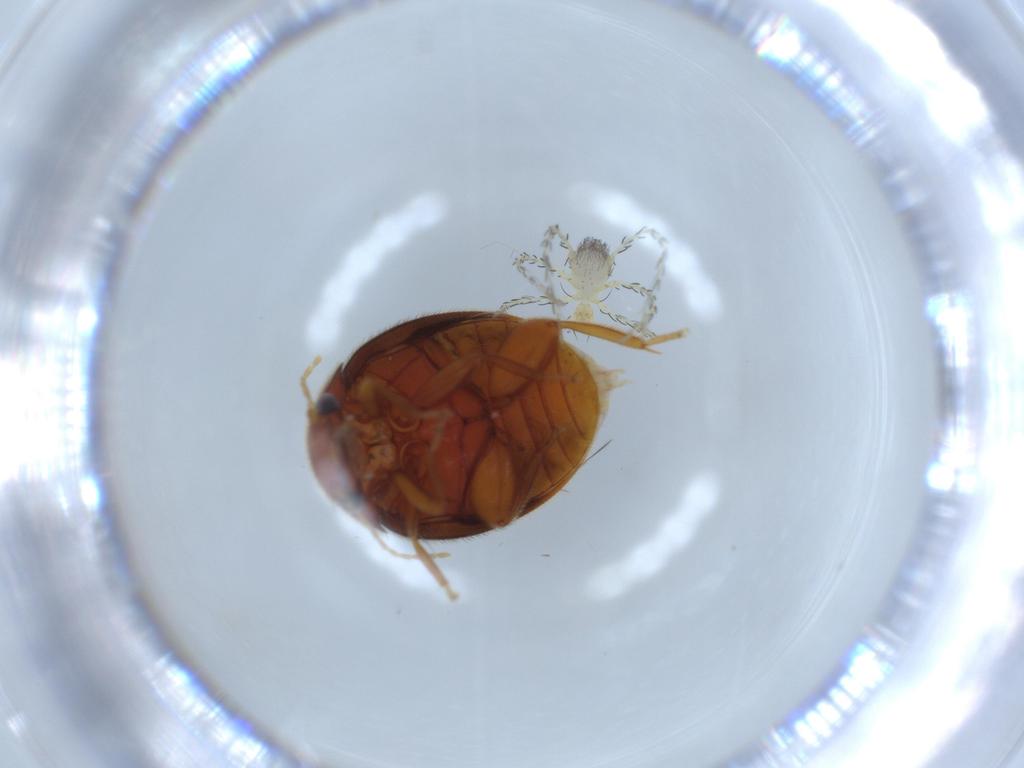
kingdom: Animalia
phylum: Arthropoda
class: Insecta
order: Coleoptera
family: Scirtidae
